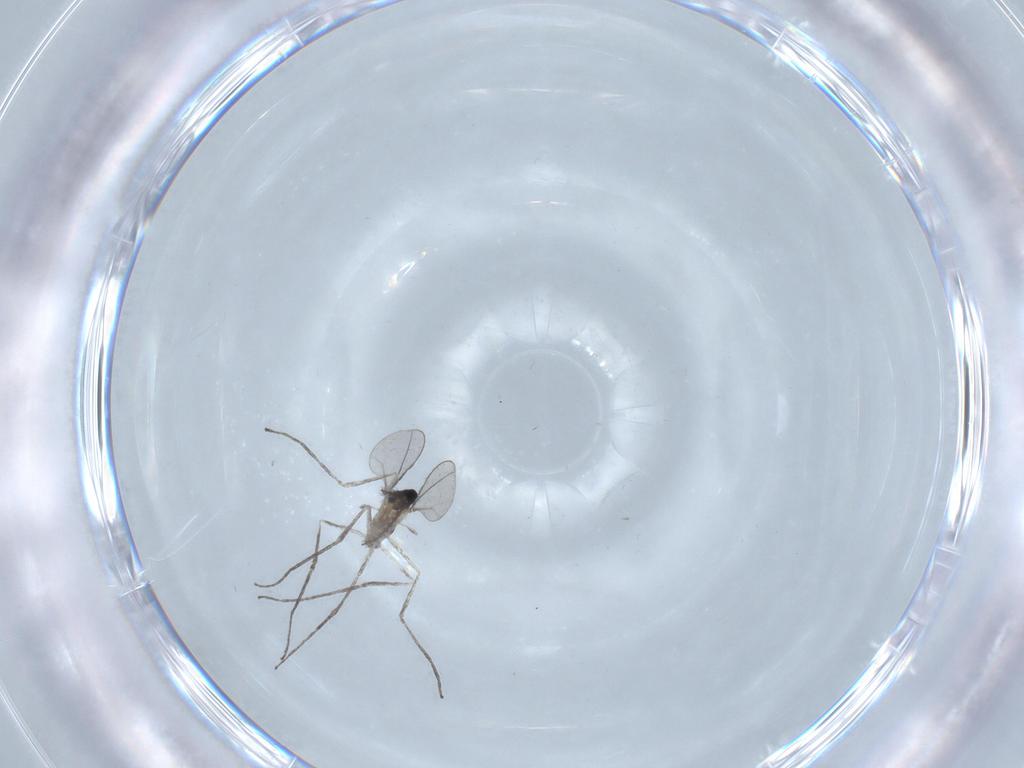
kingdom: Animalia
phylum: Arthropoda
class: Insecta
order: Diptera
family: Cecidomyiidae
